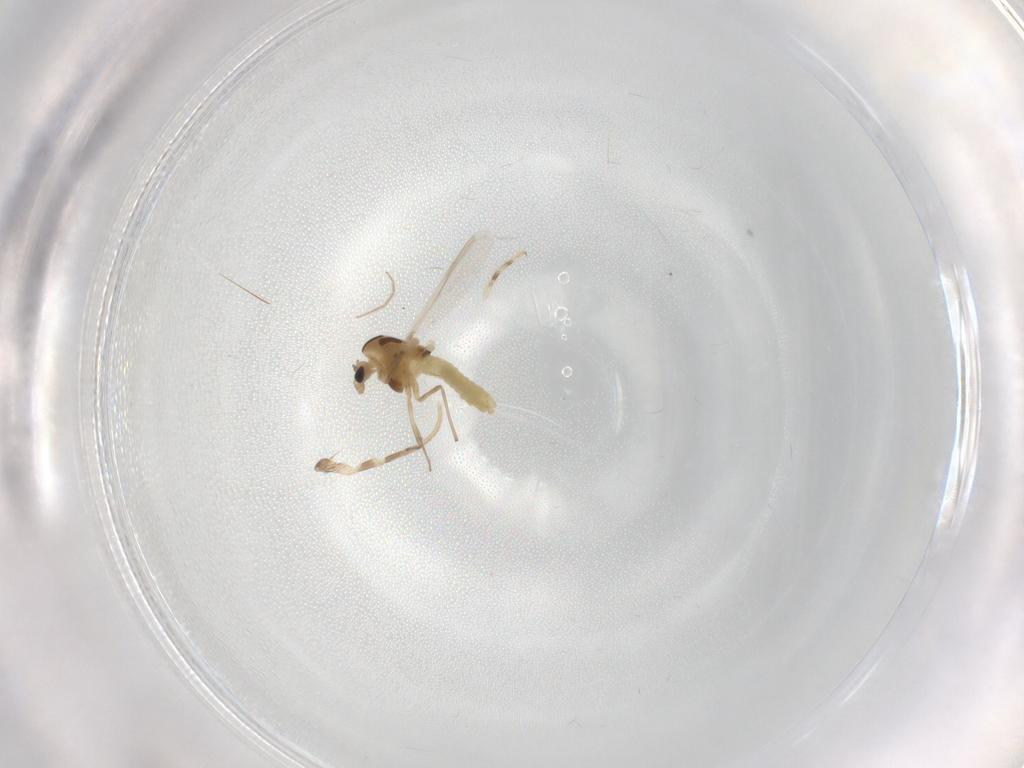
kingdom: Animalia
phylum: Arthropoda
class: Insecta
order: Diptera
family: Chironomidae
